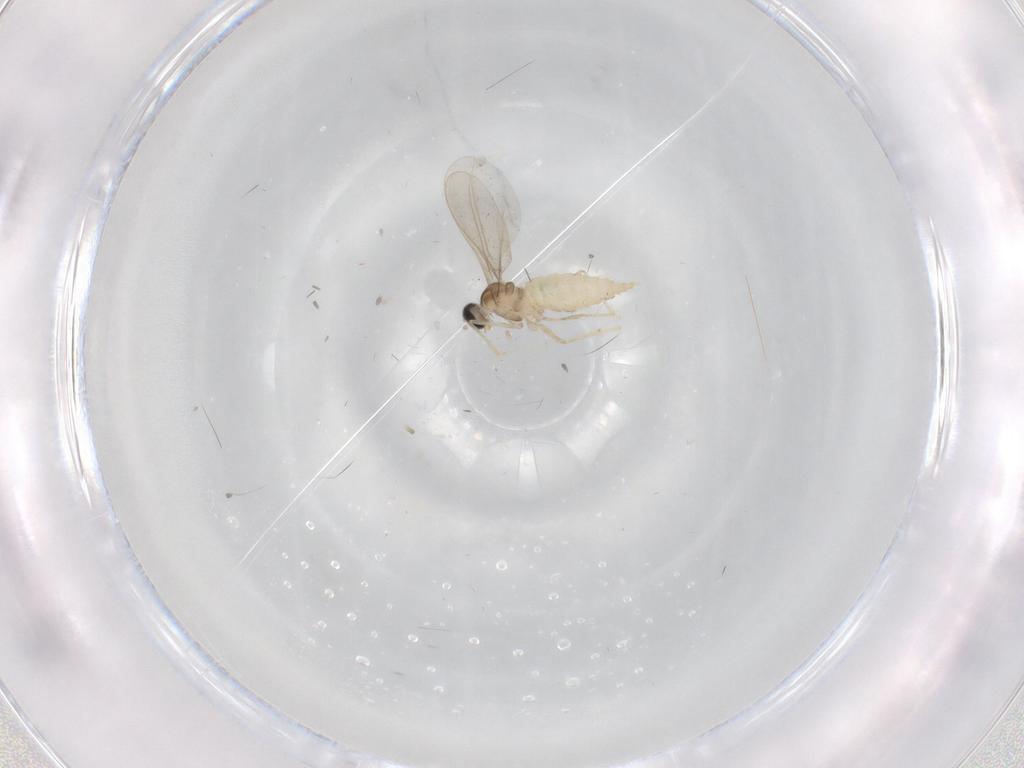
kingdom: Animalia
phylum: Arthropoda
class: Insecta
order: Diptera
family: Cecidomyiidae
